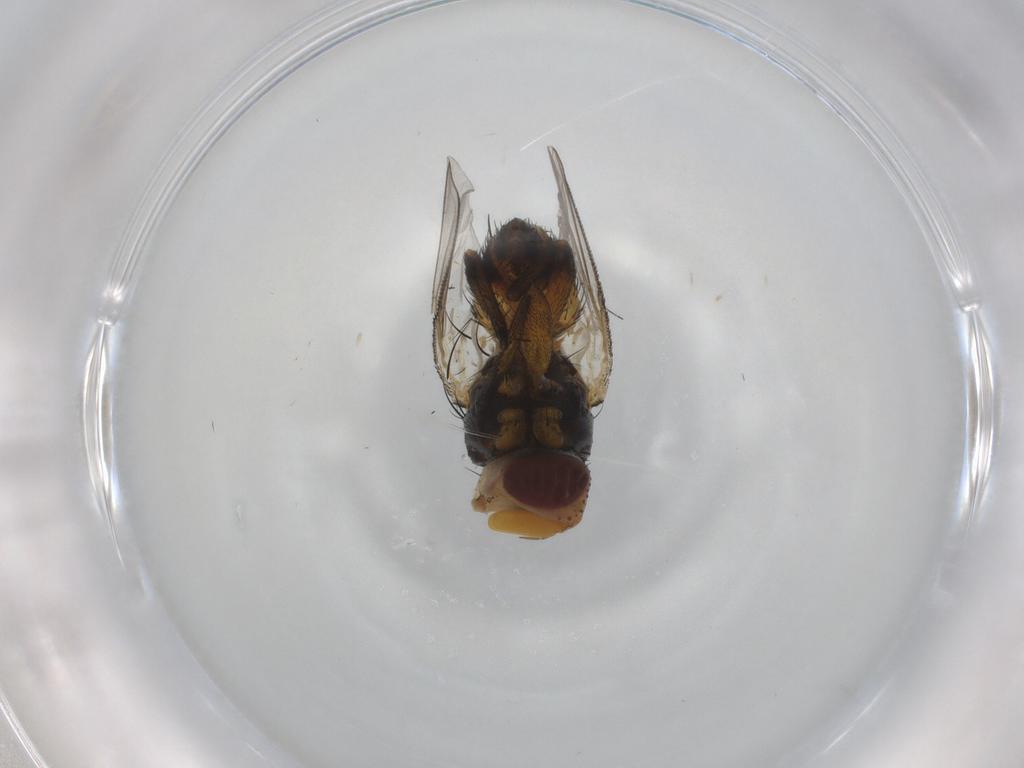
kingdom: Animalia
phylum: Arthropoda
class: Insecta
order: Diptera
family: Tachinidae
